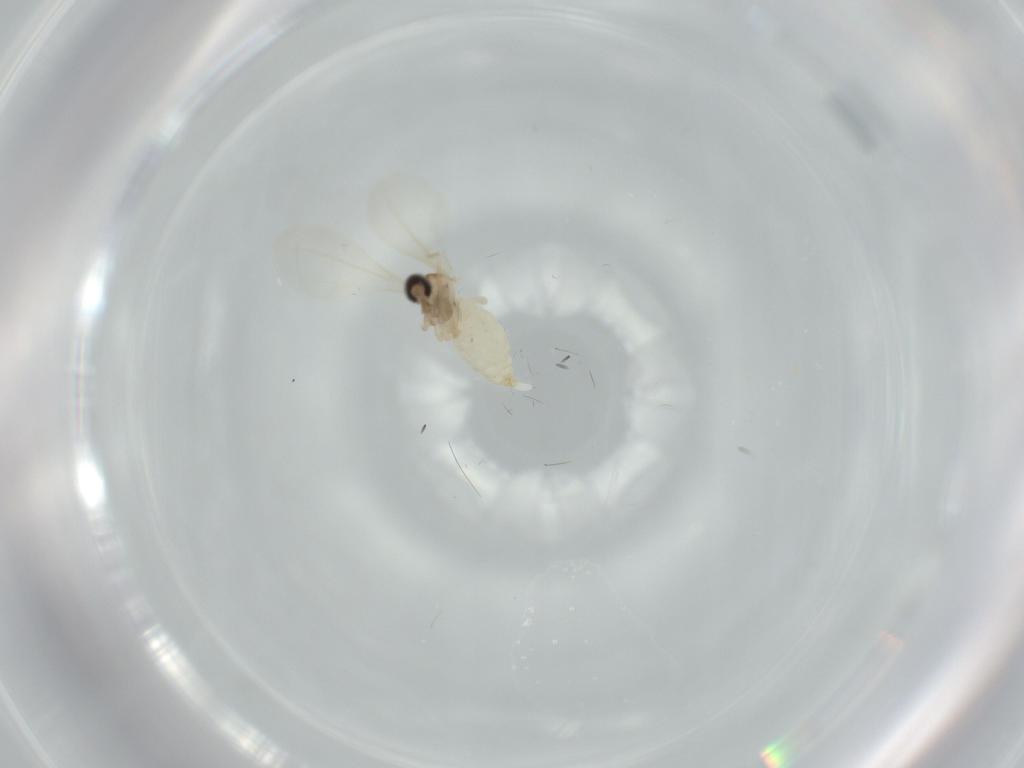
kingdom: Animalia
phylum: Arthropoda
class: Insecta
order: Diptera
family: Cecidomyiidae
